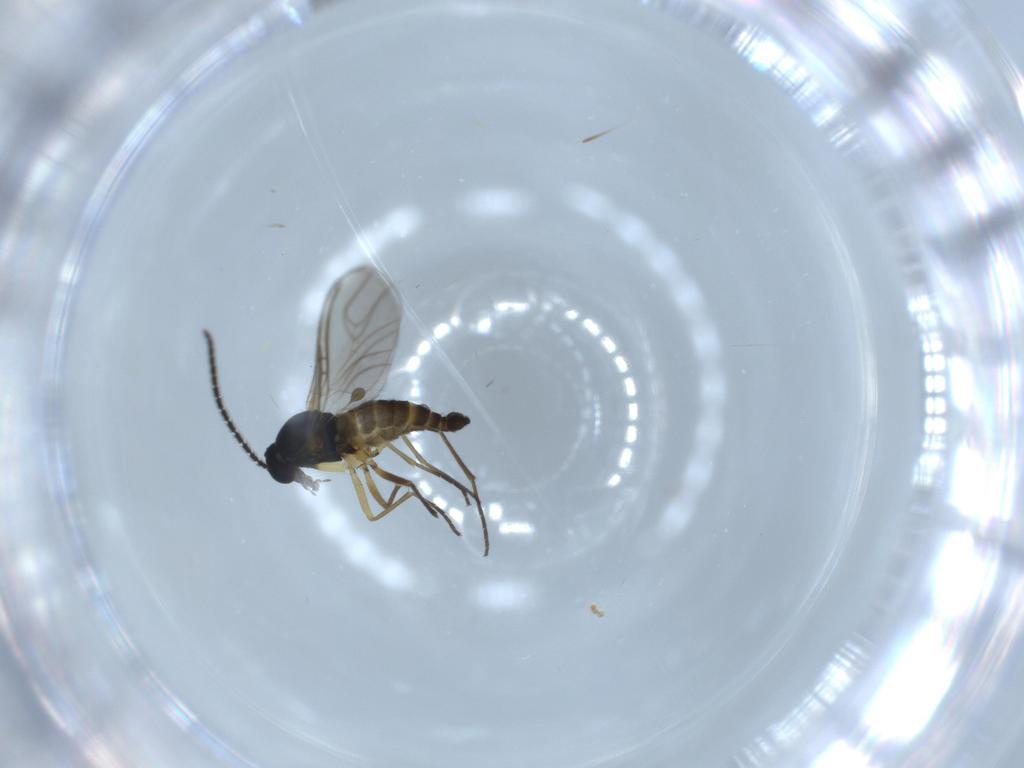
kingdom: Animalia
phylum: Arthropoda
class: Insecta
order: Diptera
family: Sciaridae
